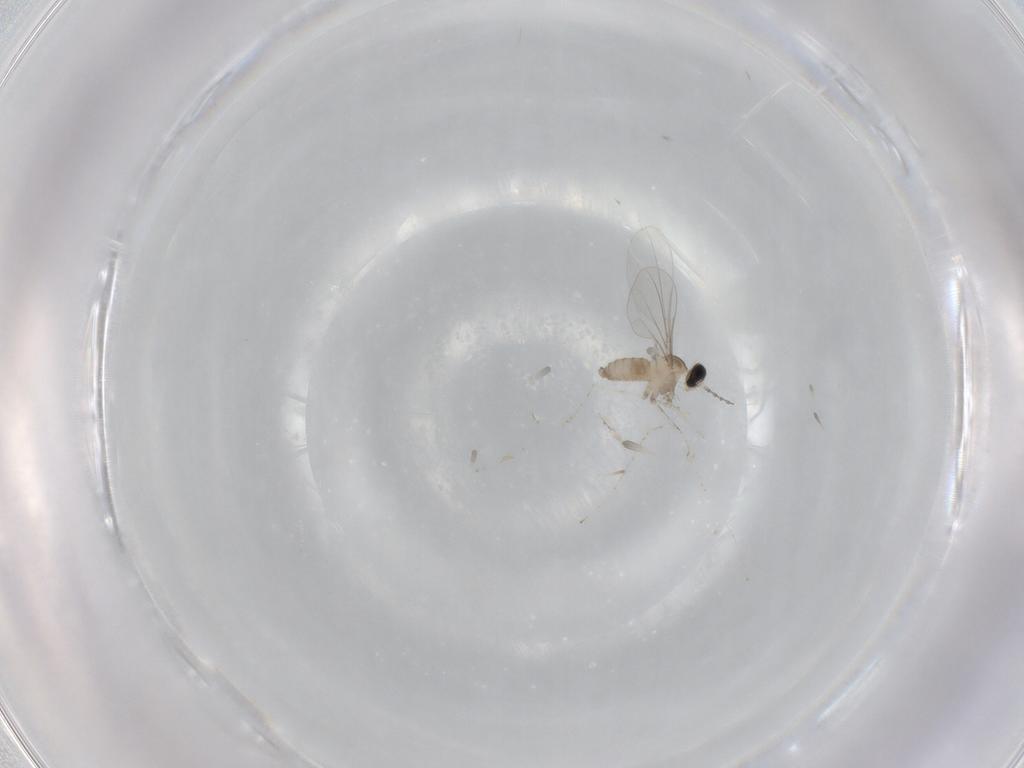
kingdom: Animalia
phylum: Arthropoda
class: Insecta
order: Diptera
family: Cecidomyiidae
